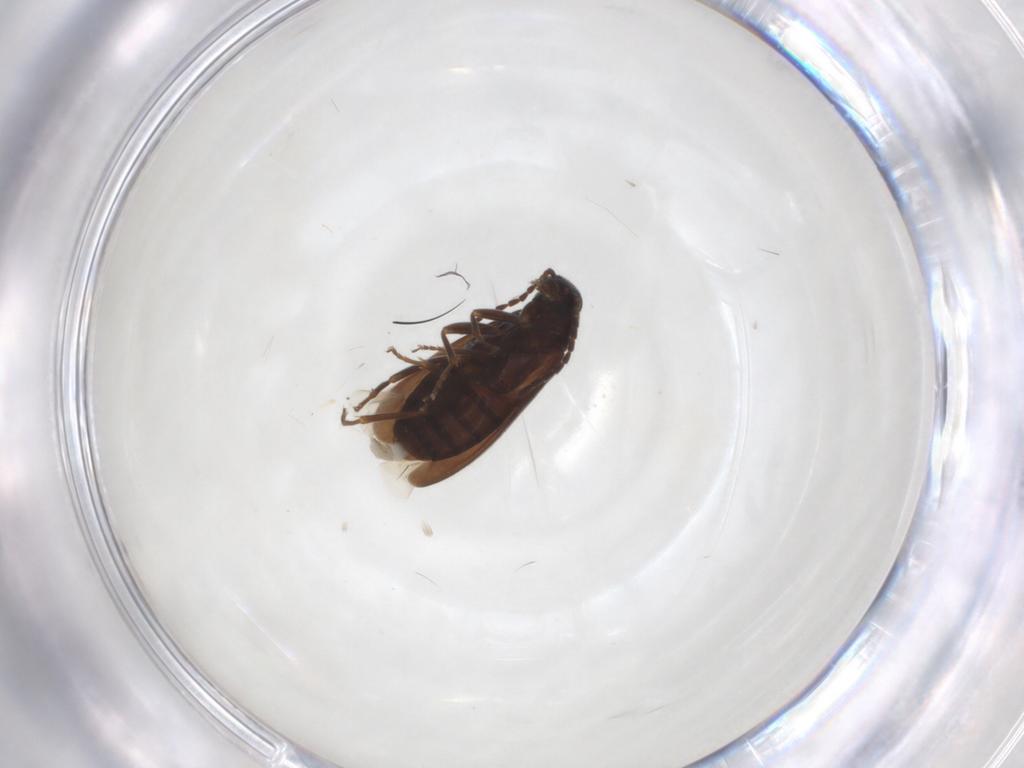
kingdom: Animalia
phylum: Arthropoda
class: Insecta
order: Coleoptera
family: Scraptiidae
